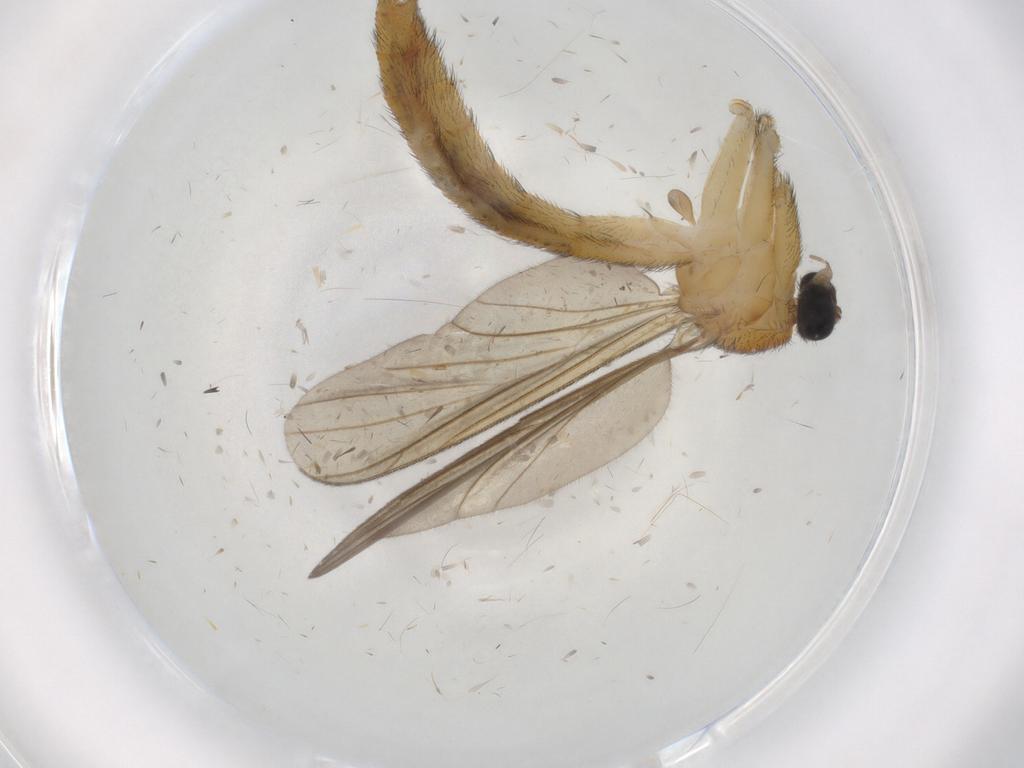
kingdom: Animalia
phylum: Arthropoda
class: Insecta
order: Diptera
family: Cecidomyiidae
